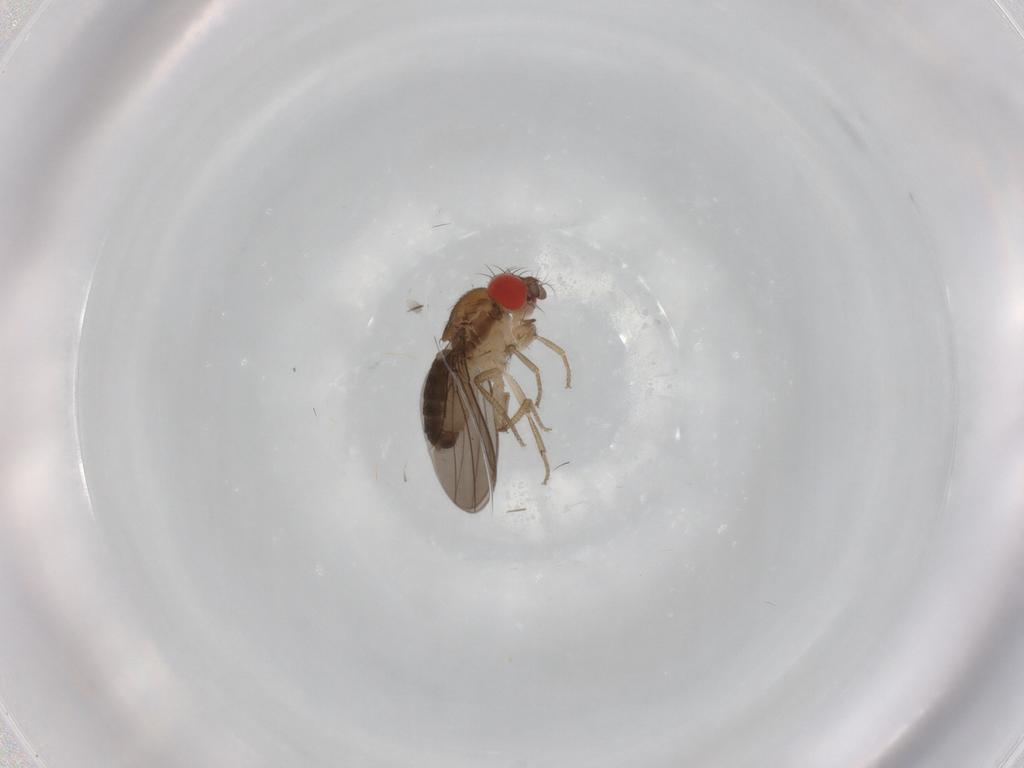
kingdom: Animalia
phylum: Arthropoda
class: Insecta
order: Diptera
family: Drosophilidae
